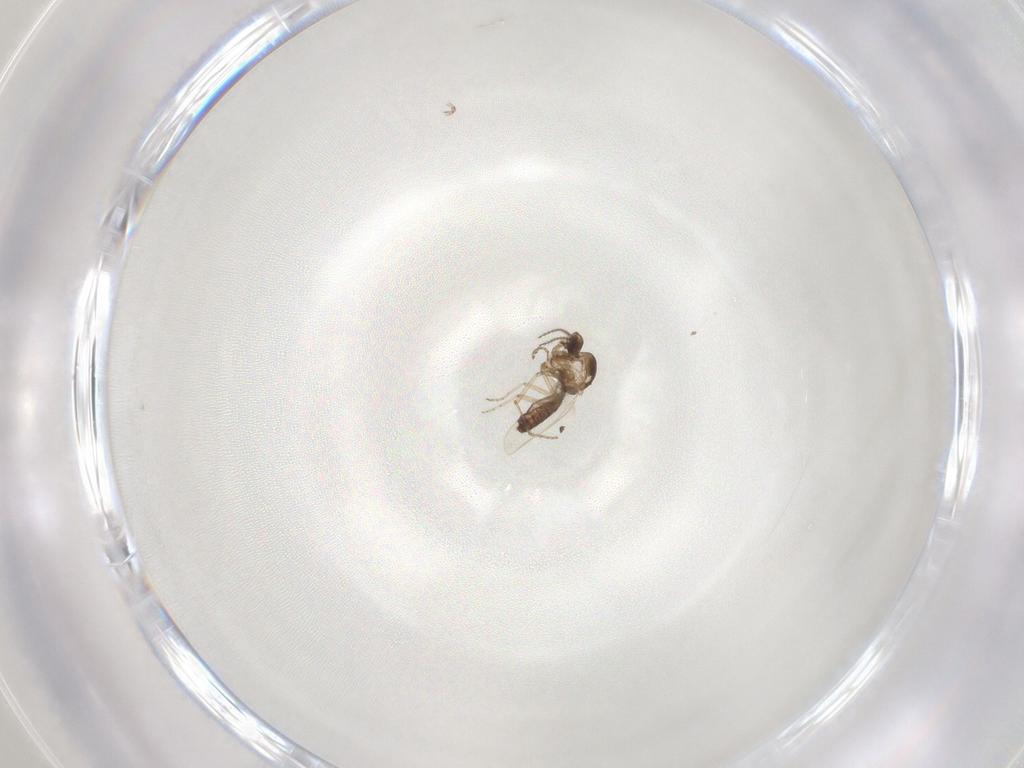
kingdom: Animalia
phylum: Arthropoda
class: Insecta
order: Diptera
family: Ceratopogonidae
